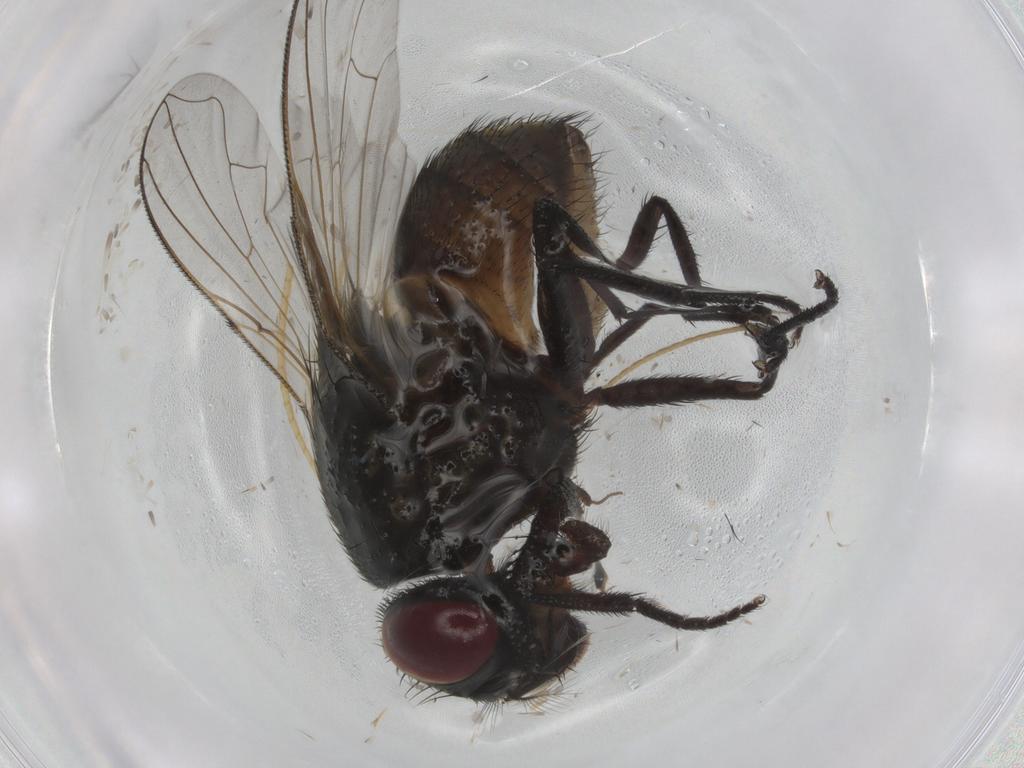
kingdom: Animalia
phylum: Arthropoda
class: Insecta
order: Diptera
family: Muscidae
